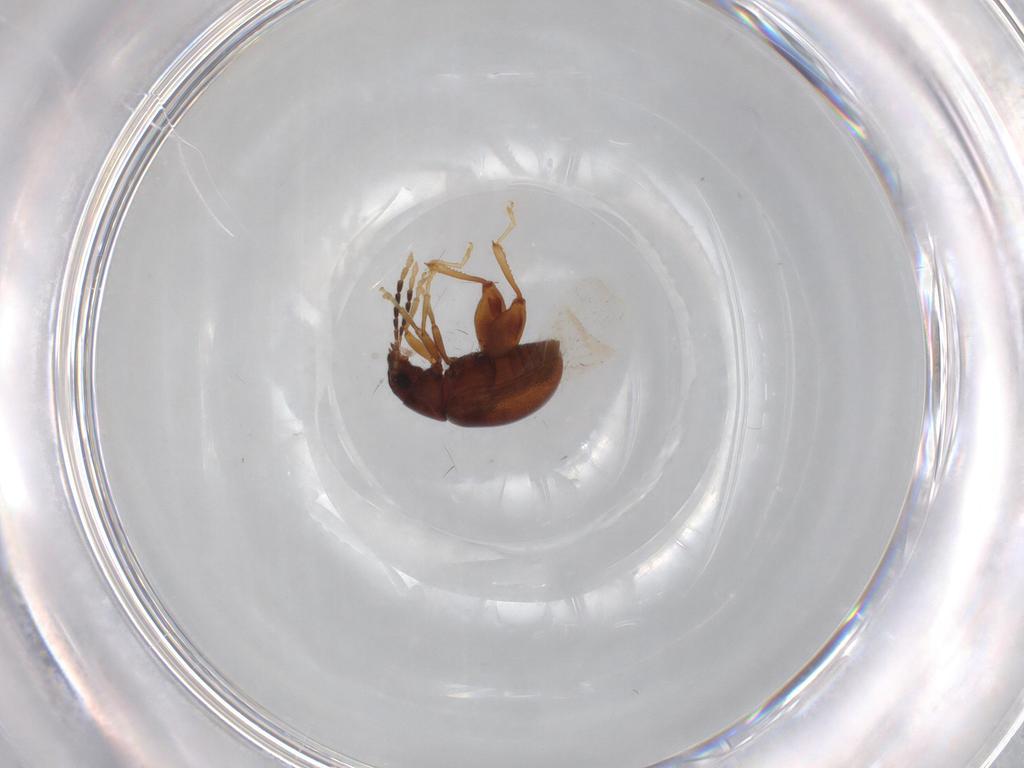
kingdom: Animalia
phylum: Arthropoda
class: Insecta
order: Coleoptera
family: Chrysomelidae
